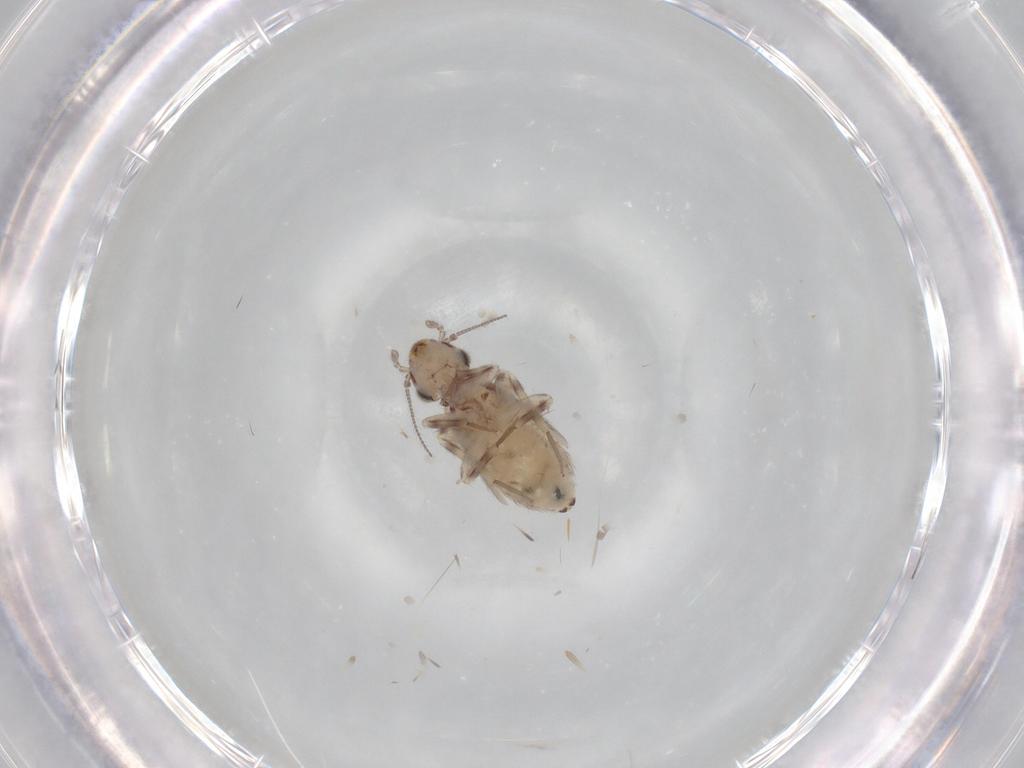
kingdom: Animalia
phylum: Arthropoda
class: Insecta
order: Psocodea
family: Lepidopsocidae
